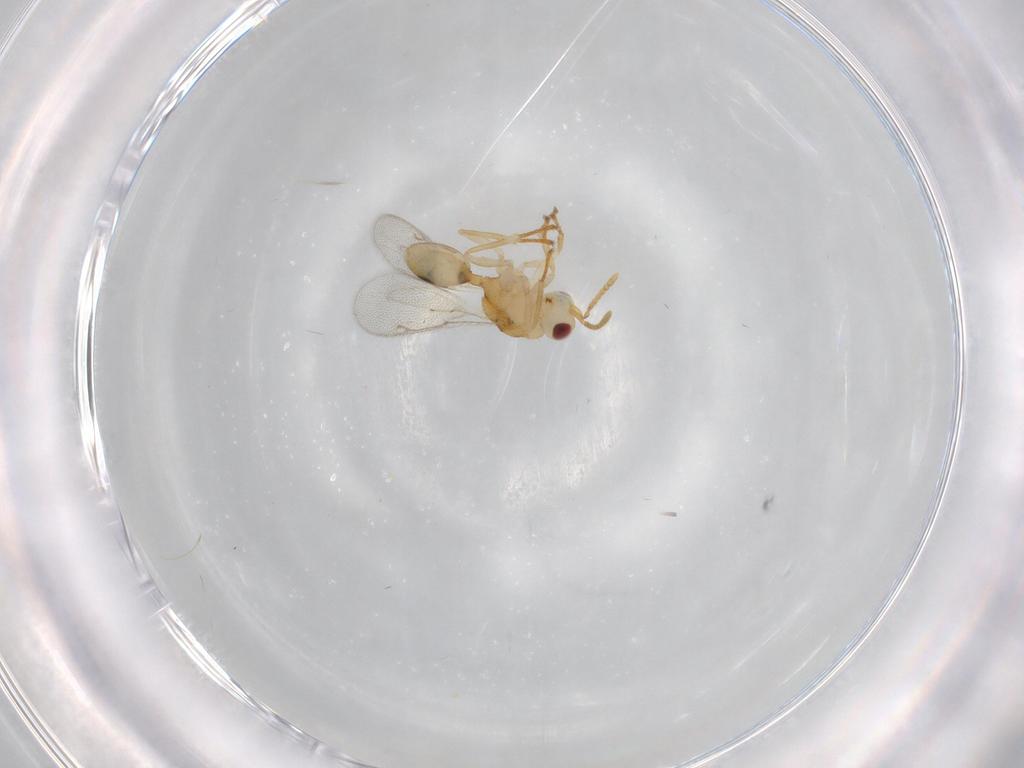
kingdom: Animalia
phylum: Arthropoda
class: Insecta
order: Hymenoptera
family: Eurytomidae
